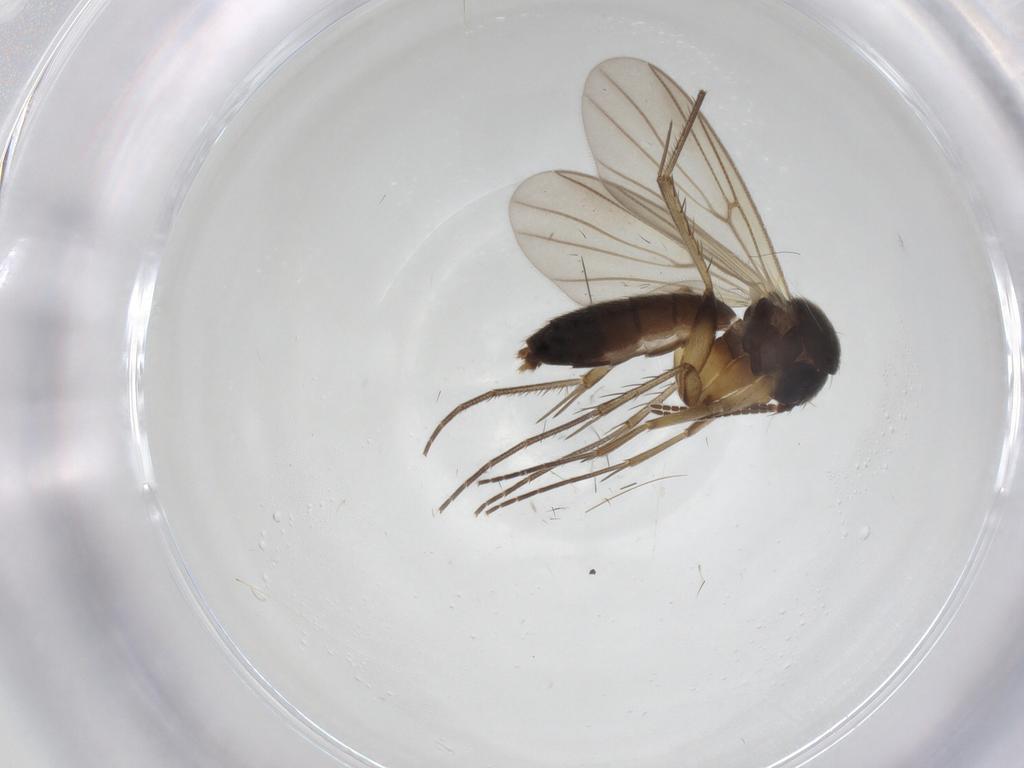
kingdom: Animalia
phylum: Arthropoda
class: Insecta
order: Diptera
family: Mycetophilidae
